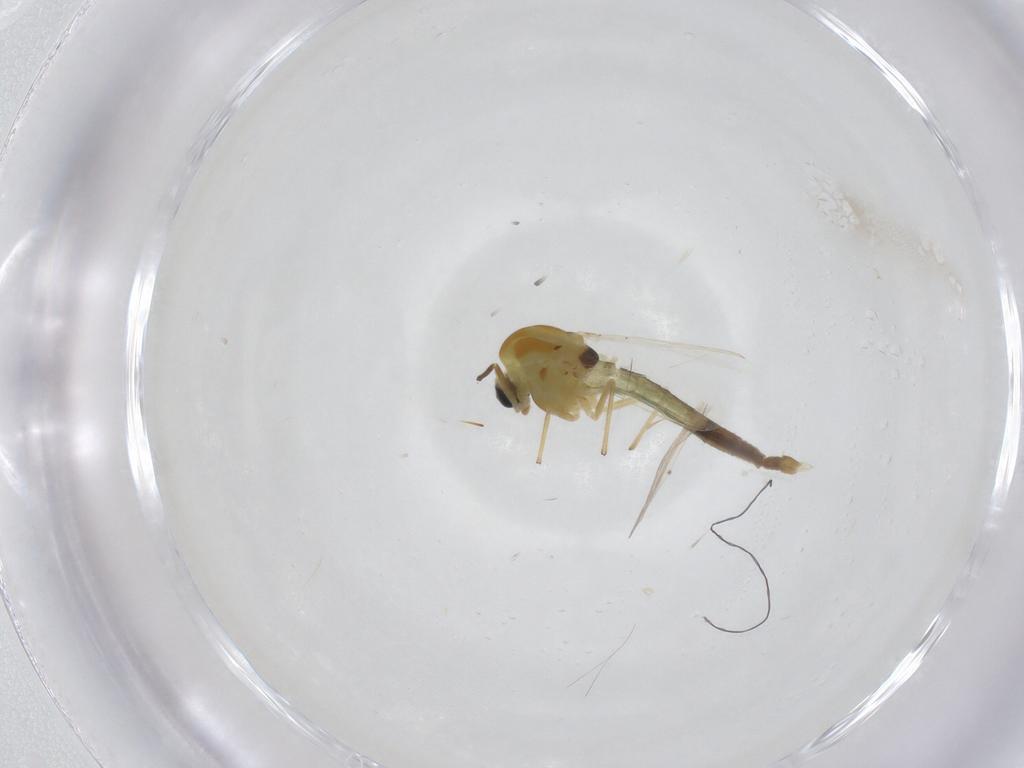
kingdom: Animalia
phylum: Arthropoda
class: Insecta
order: Diptera
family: Chironomidae
